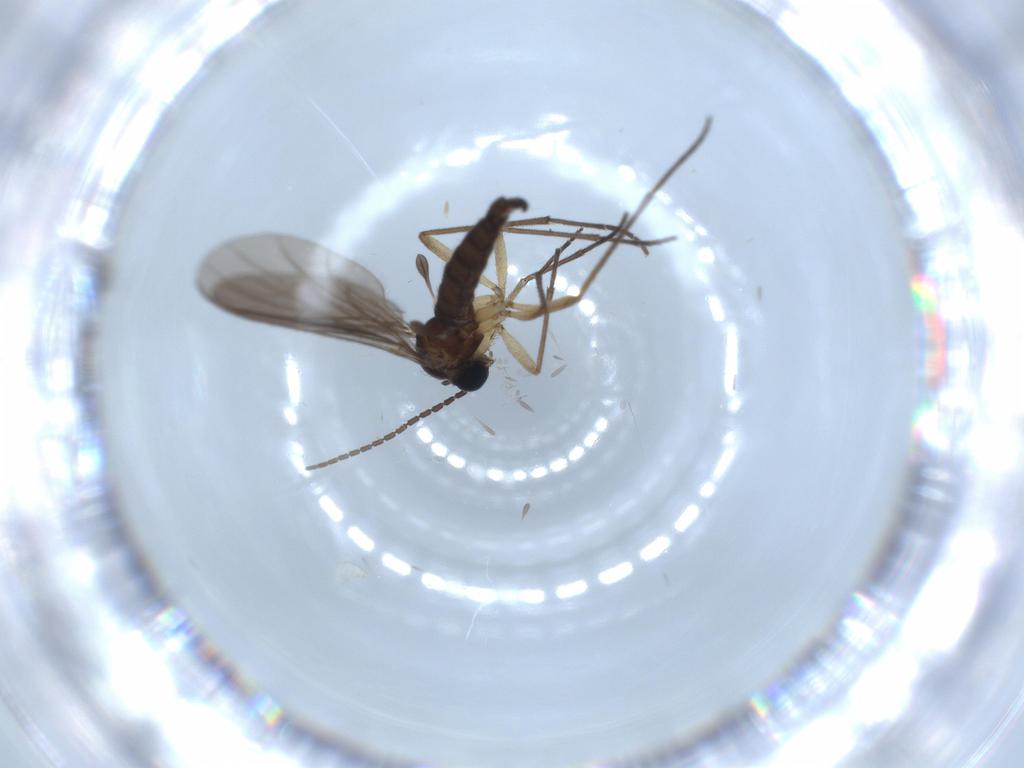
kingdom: Animalia
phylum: Arthropoda
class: Insecta
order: Diptera
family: Sciaridae
